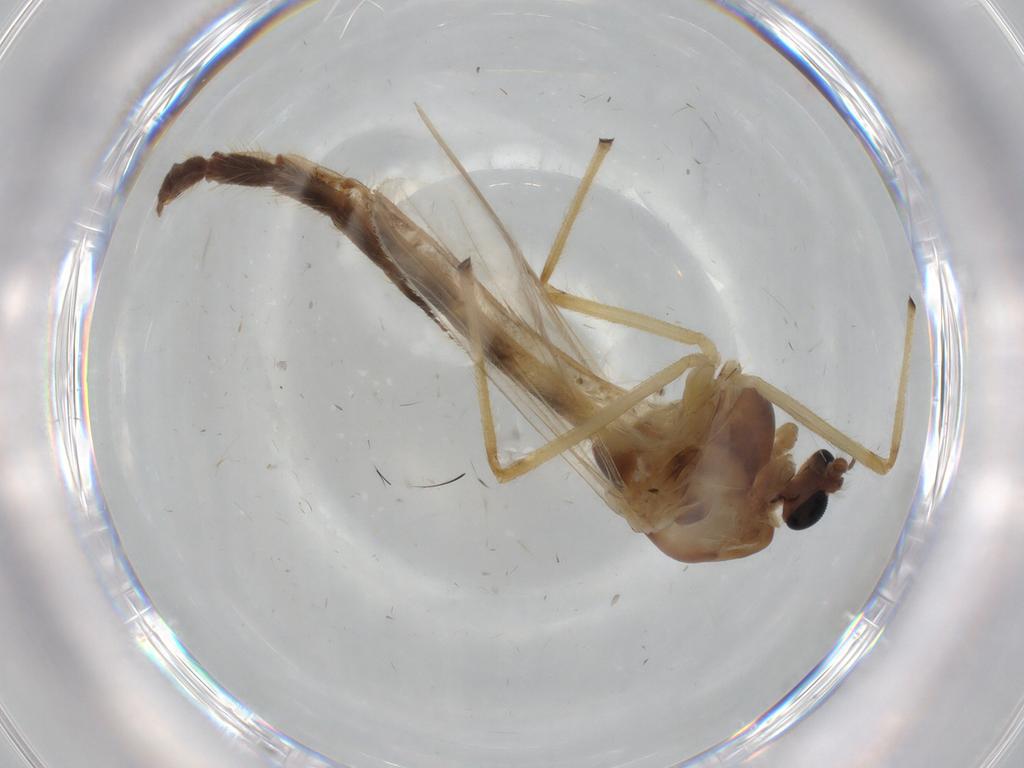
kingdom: Animalia
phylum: Arthropoda
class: Insecta
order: Diptera
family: Chironomidae
